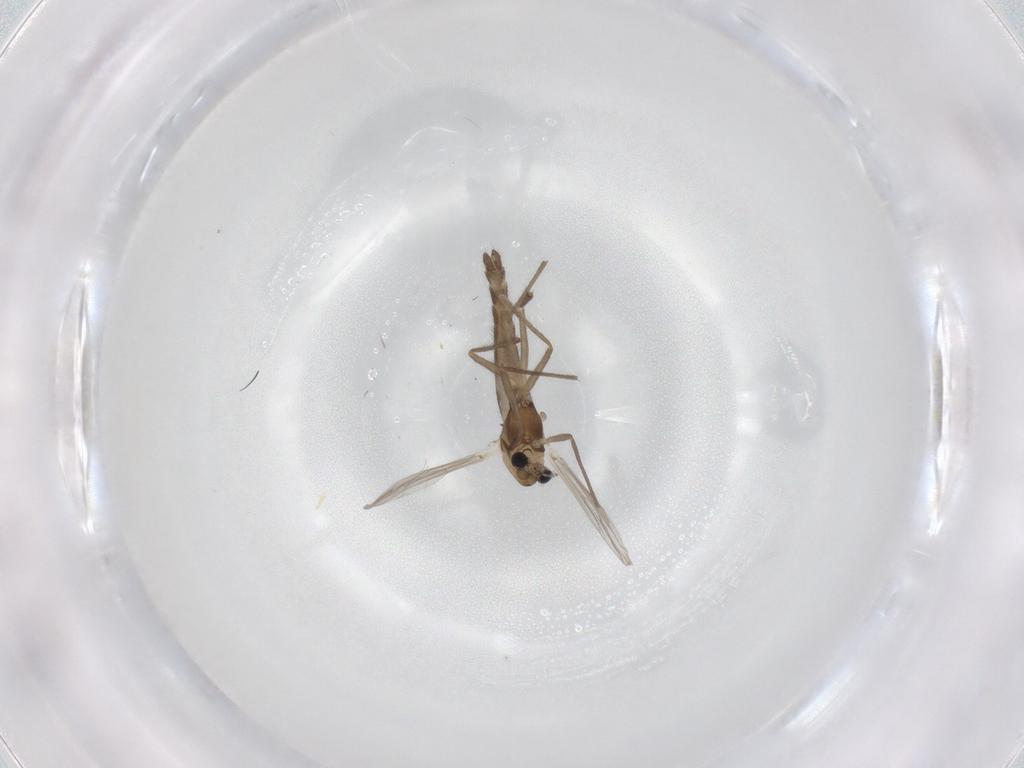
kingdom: Animalia
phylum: Arthropoda
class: Insecta
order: Diptera
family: Chironomidae
